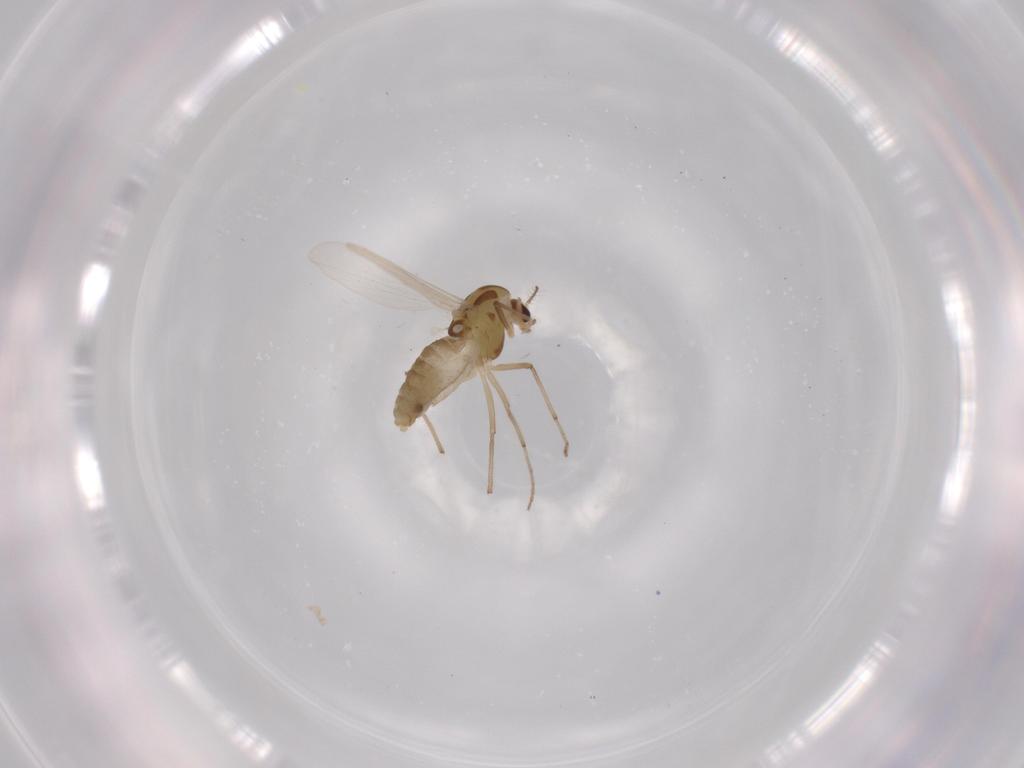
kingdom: Animalia
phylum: Arthropoda
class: Insecta
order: Diptera
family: Chironomidae
